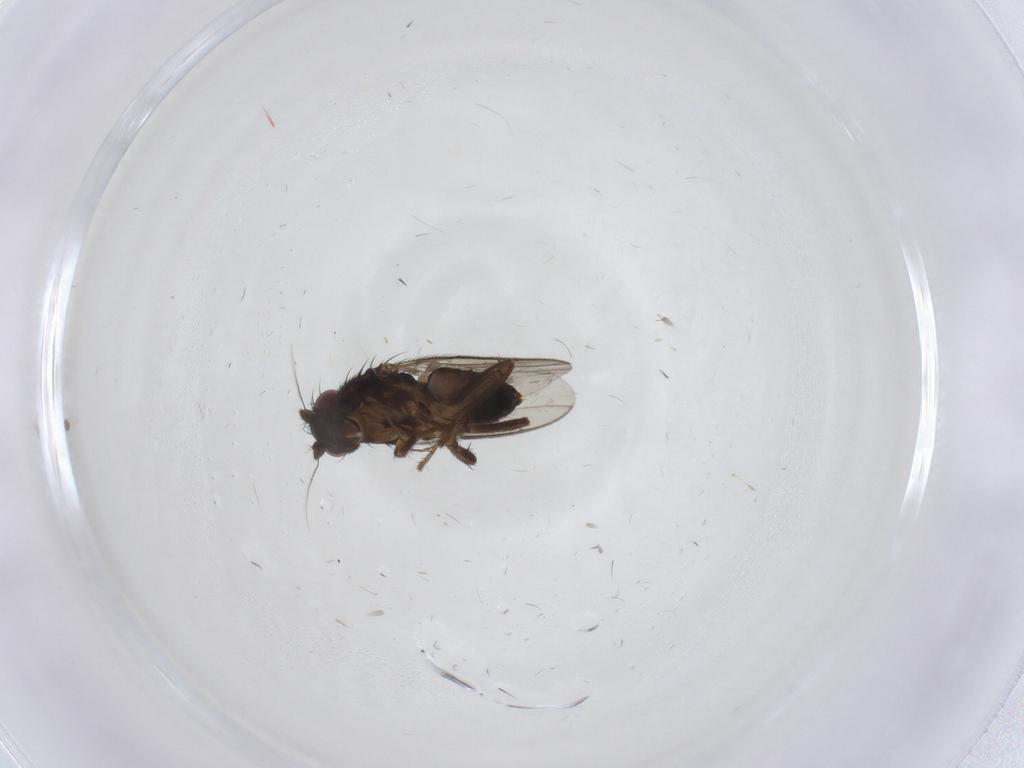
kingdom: Animalia
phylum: Arthropoda
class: Insecta
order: Diptera
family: Sphaeroceridae
